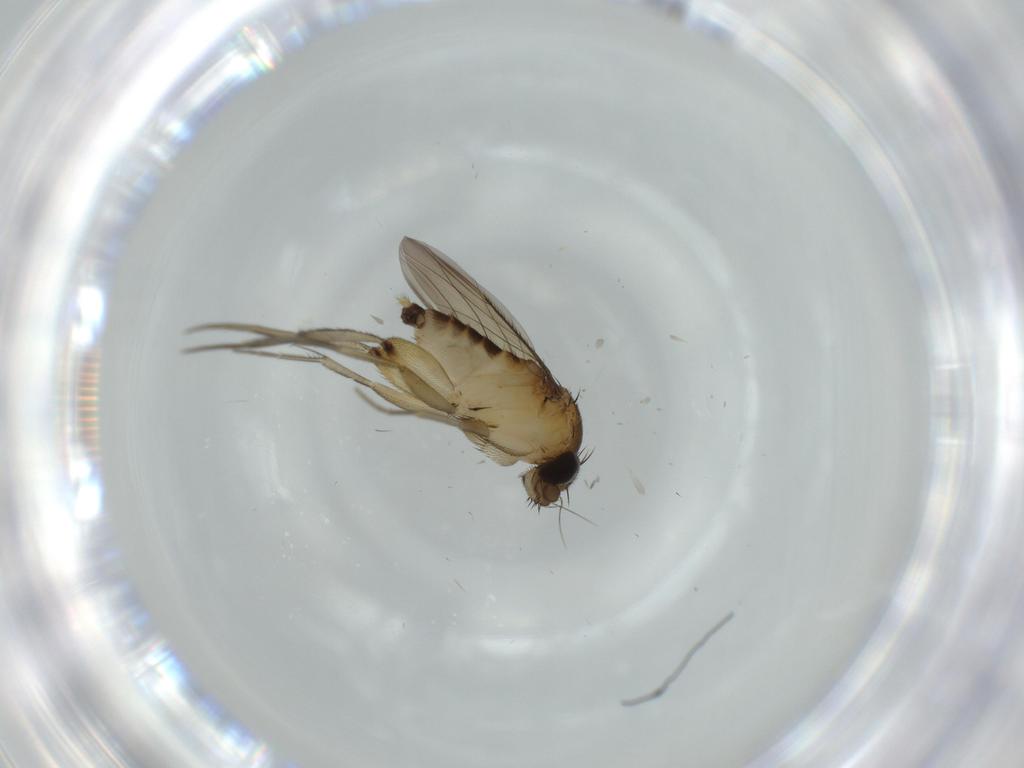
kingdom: Animalia
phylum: Arthropoda
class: Insecta
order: Diptera
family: Phoridae
